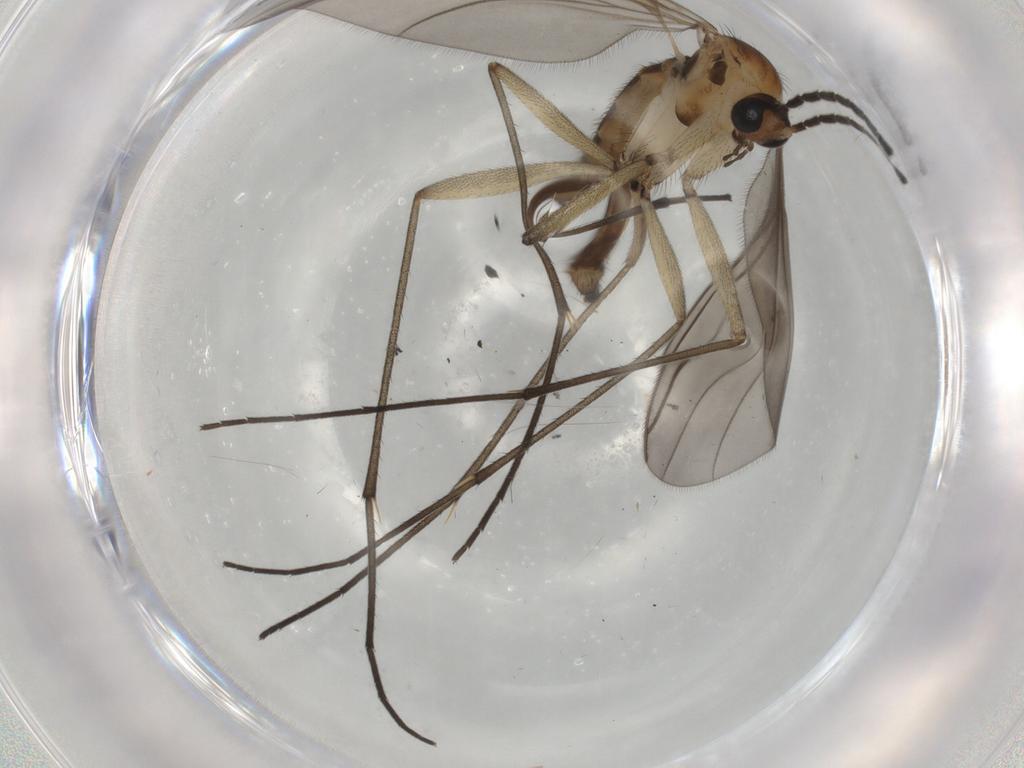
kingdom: Animalia
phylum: Arthropoda
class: Insecta
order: Diptera
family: Sciaridae
